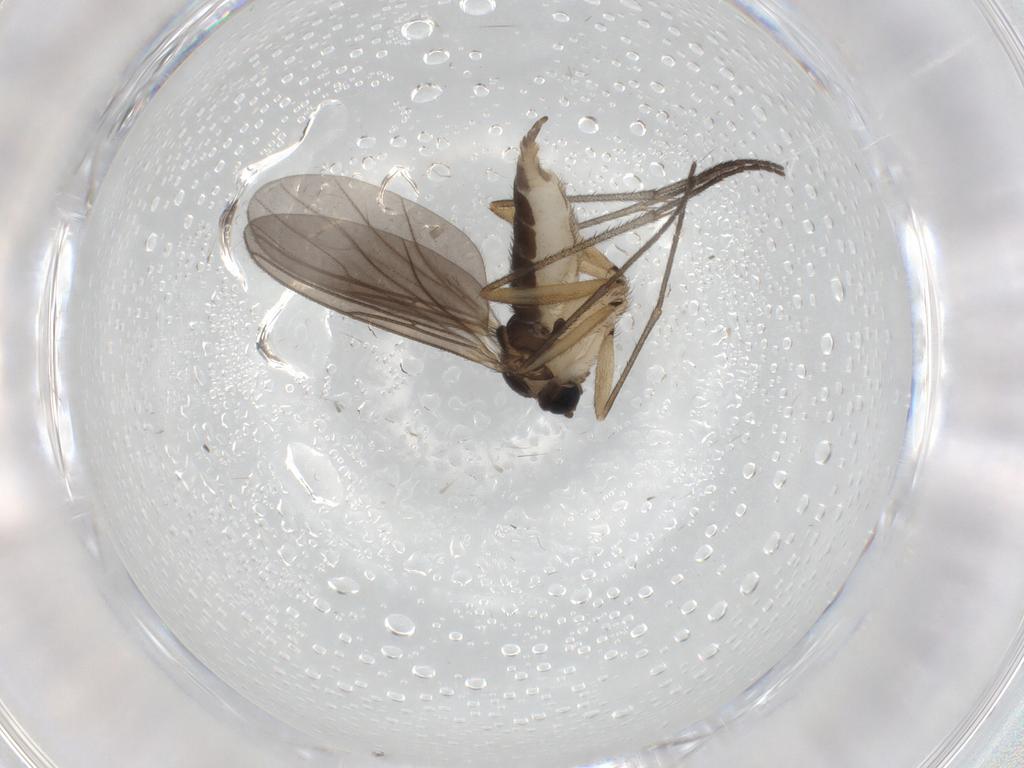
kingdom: Animalia
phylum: Arthropoda
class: Insecta
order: Diptera
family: Sciaridae
